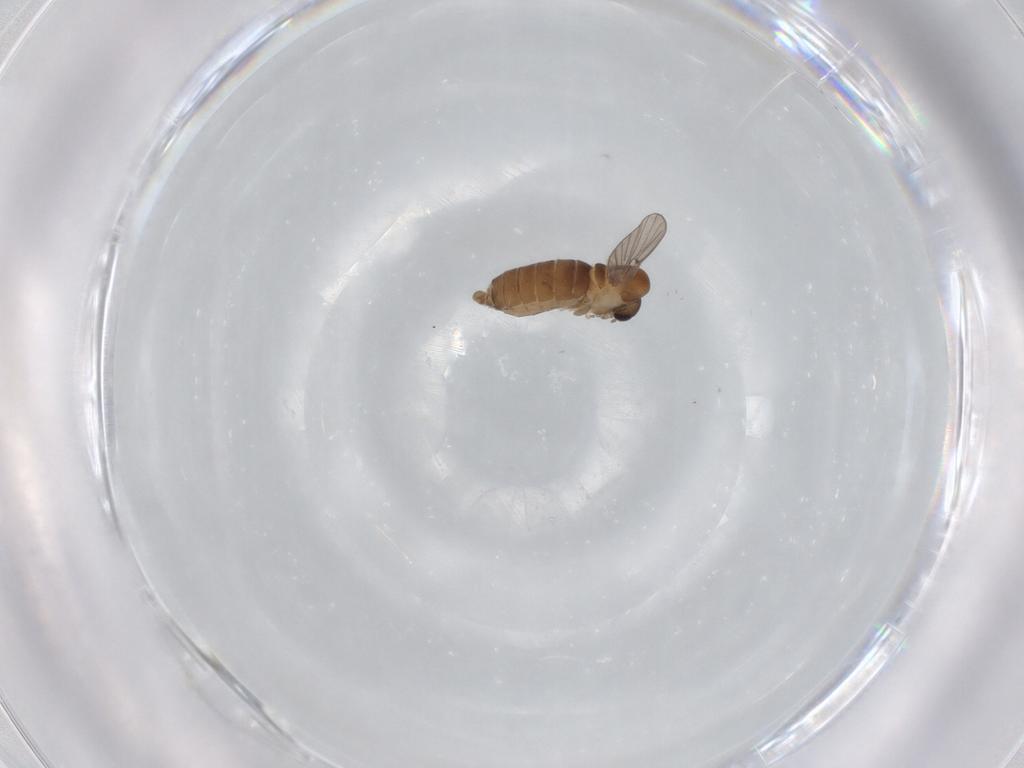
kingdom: Animalia
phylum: Arthropoda
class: Insecta
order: Diptera
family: Psychodidae
